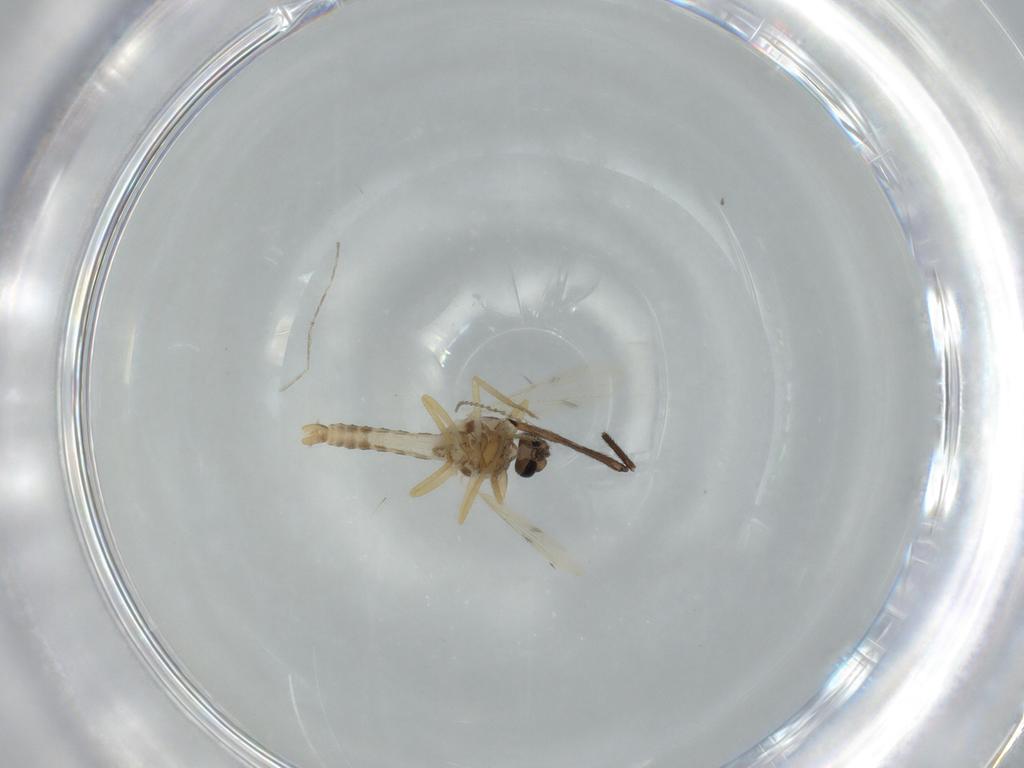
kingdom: Animalia
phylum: Arthropoda
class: Insecta
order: Diptera
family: Ceratopogonidae
